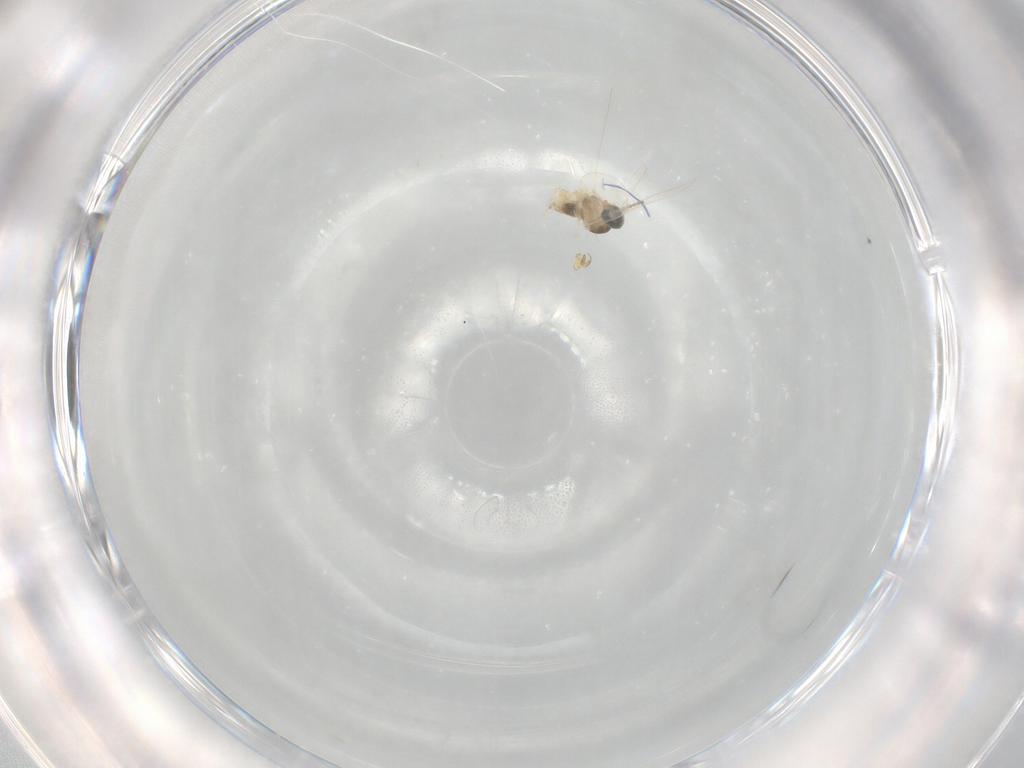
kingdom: Animalia
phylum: Arthropoda
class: Insecta
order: Diptera
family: Cecidomyiidae
